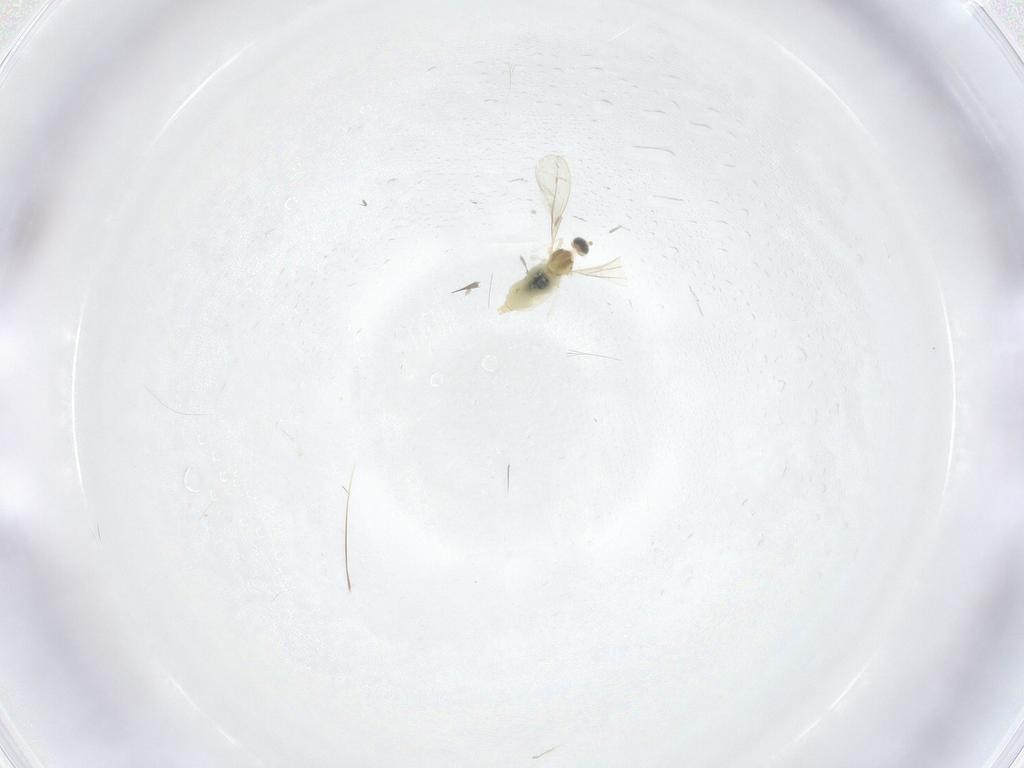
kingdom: Animalia
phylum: Arthropoda
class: Insecta
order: Diptera
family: Cecidomyiidae
